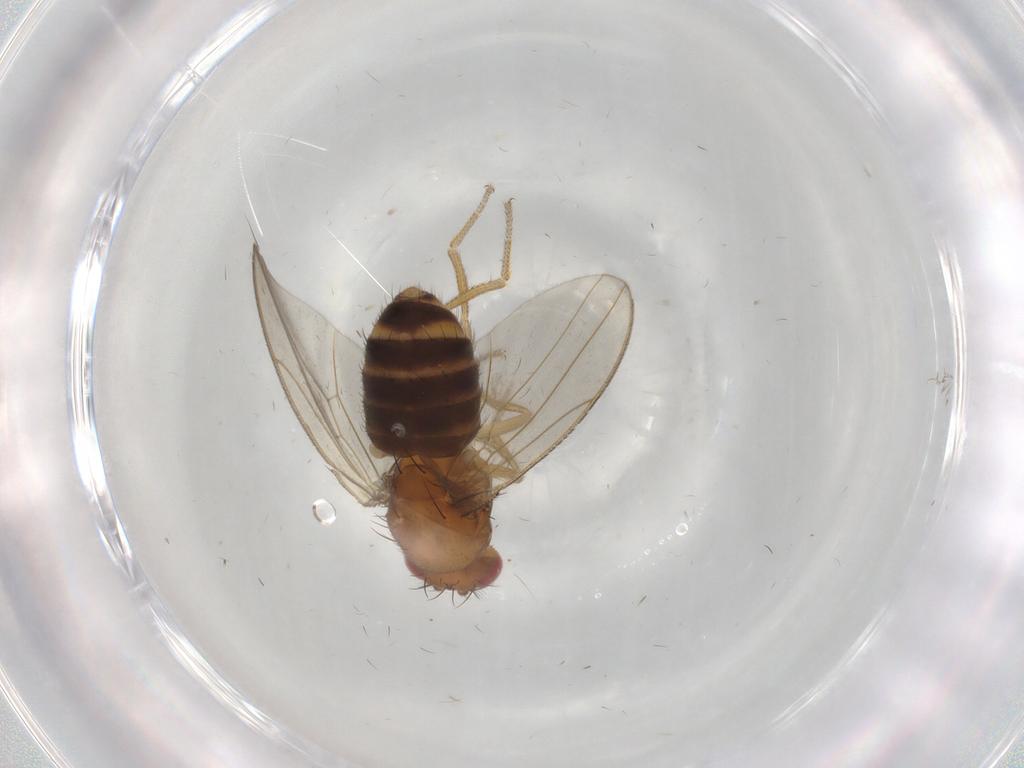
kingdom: Animalia
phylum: Arthropoda
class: Insecta
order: Diptera
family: Drosophilidae
